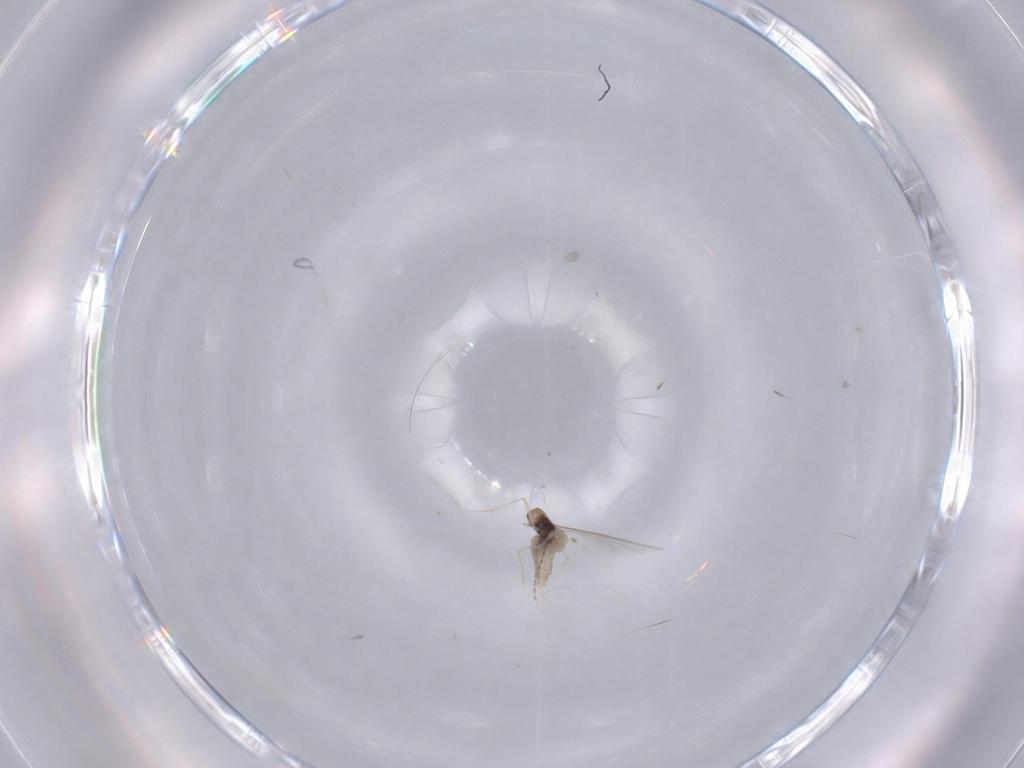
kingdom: Animalia
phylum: Arthropoda
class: Insecta
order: Diptera
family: Cecidomyiidae
